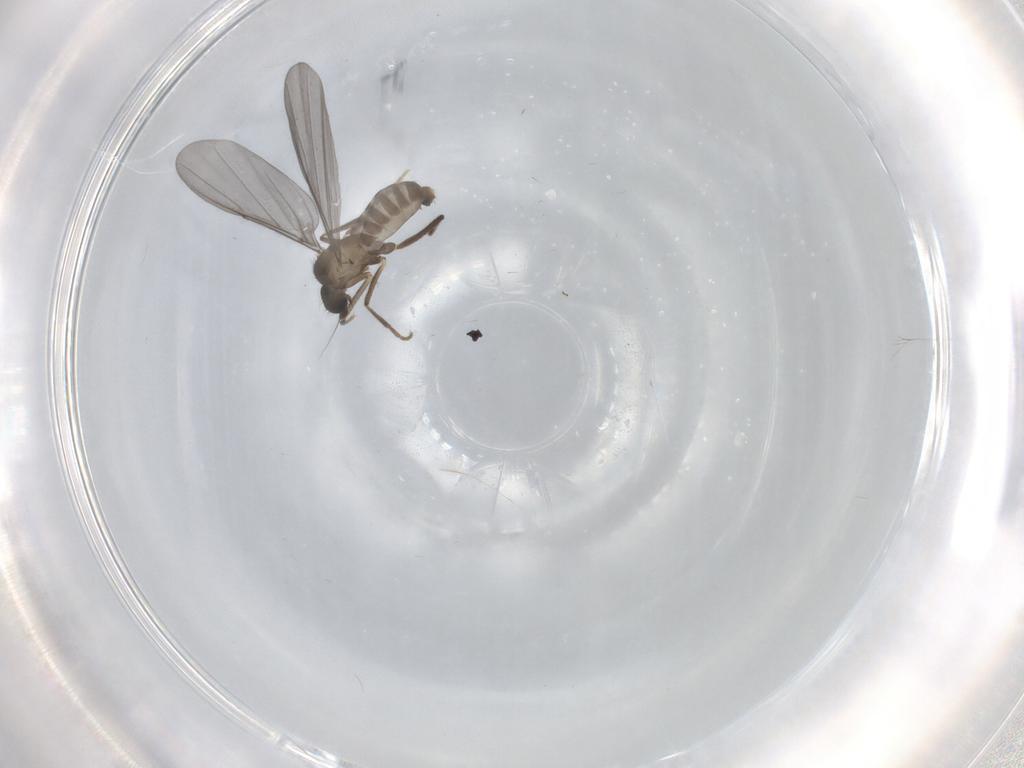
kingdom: Animalia
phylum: Arthropoda
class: Insecta
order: Diptera
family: Phoridae
